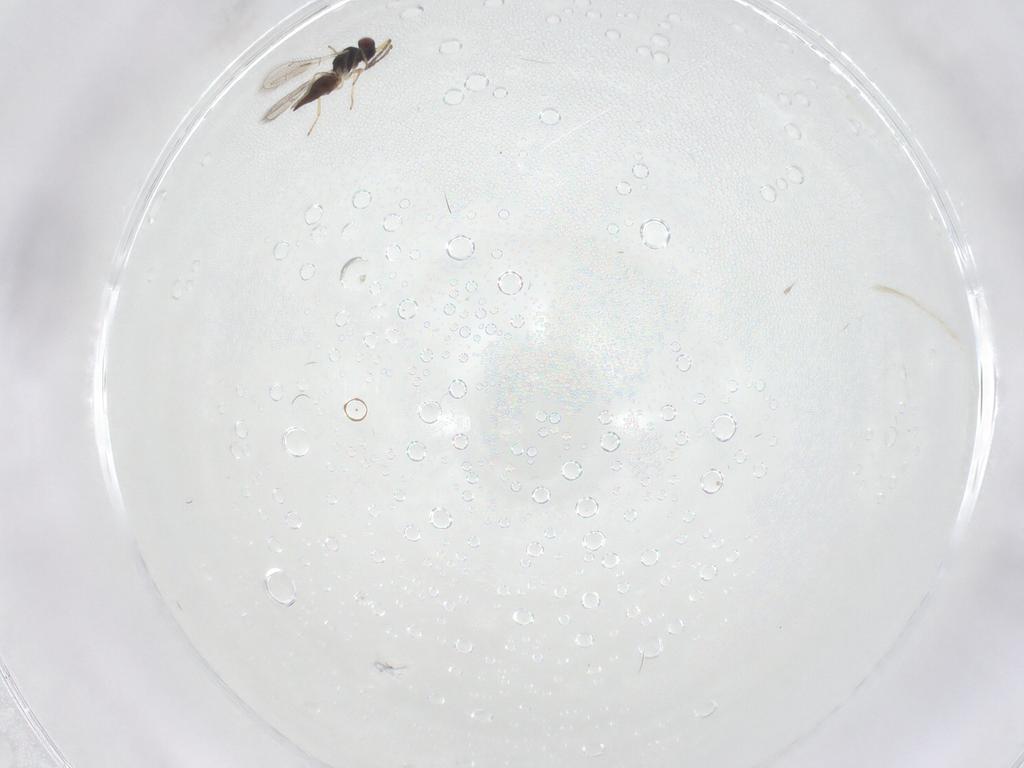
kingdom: Animalia
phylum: Arthropoda
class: Insecta
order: Hymenoptera
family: Eulophidae
